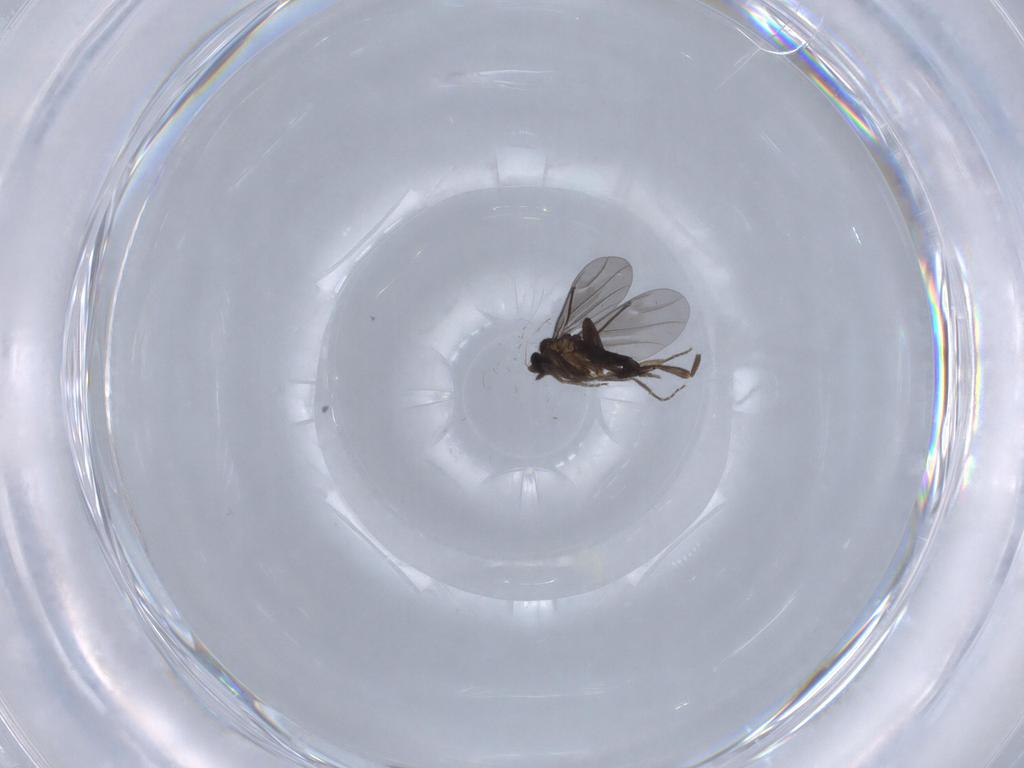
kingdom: Animalia
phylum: Arthropoda
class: Insecta
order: Diptera
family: Phoridae
